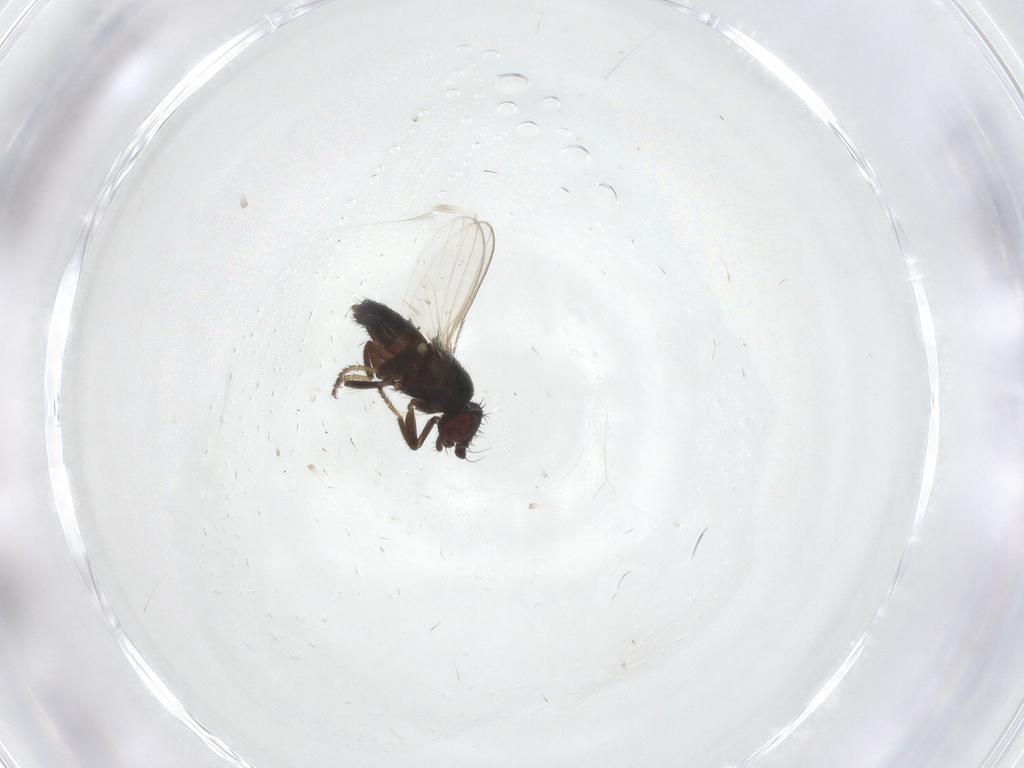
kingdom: Animalia
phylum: Arthropoda
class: Insecta
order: Diptera
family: Milichiidae
